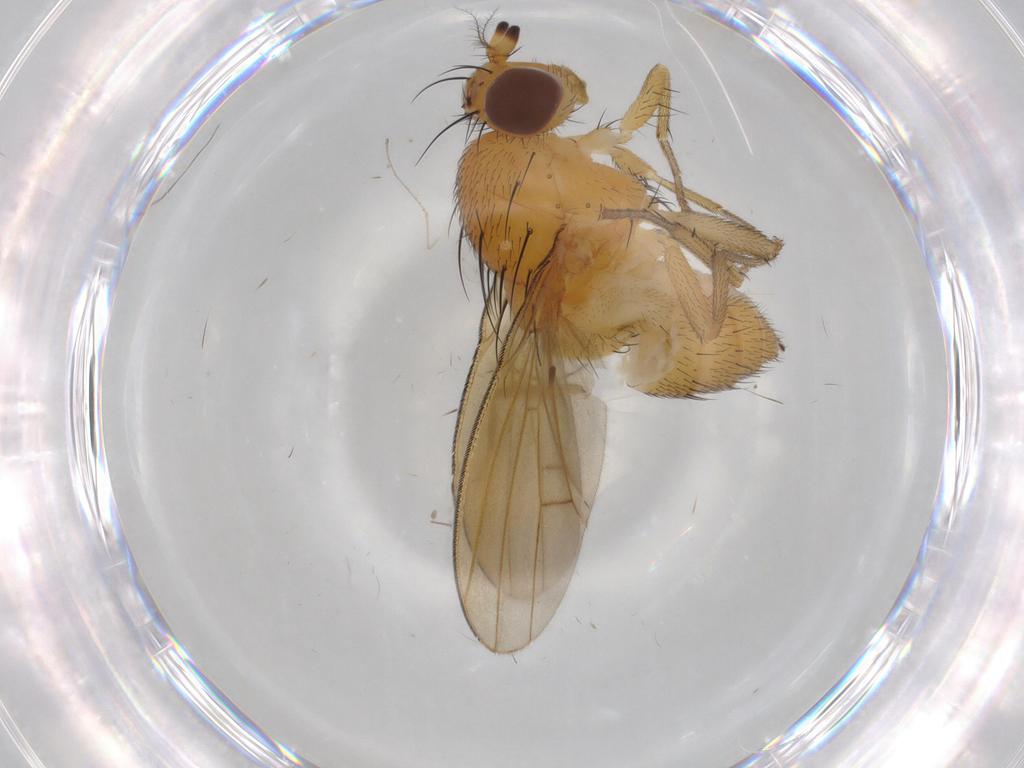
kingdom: Animalia
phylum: Arthropoda
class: Insecta
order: Diptera
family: Lauxaniidae
